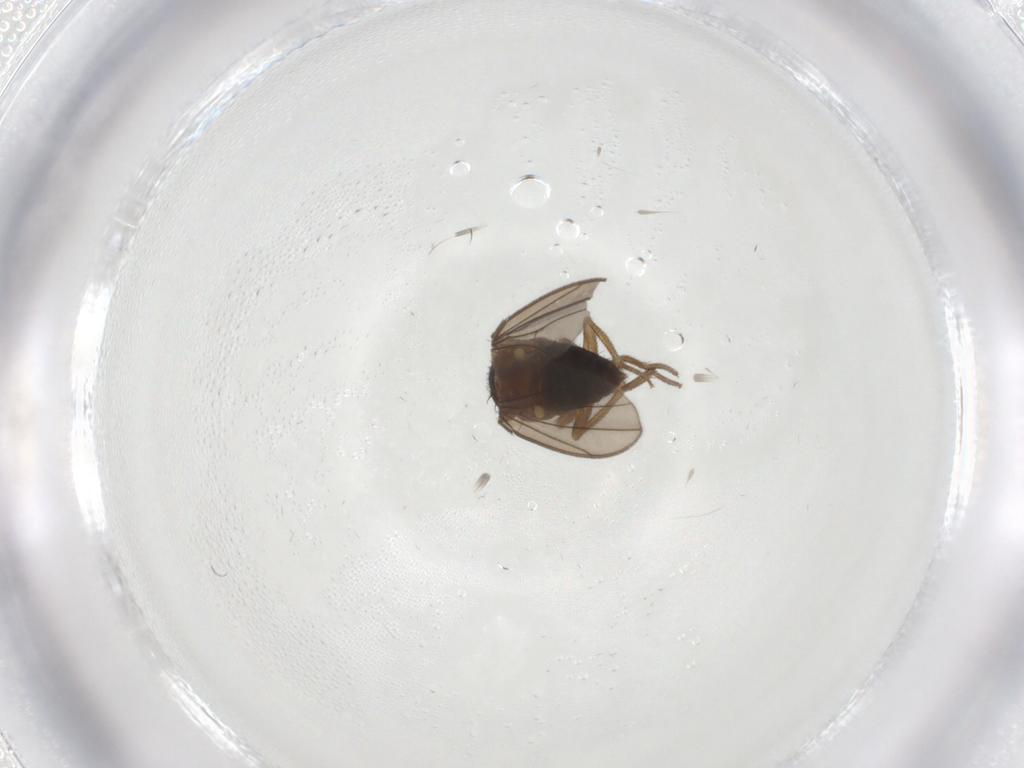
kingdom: Animalia
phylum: Arthropoda
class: Insecta
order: Diptera
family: Drosophilidae
